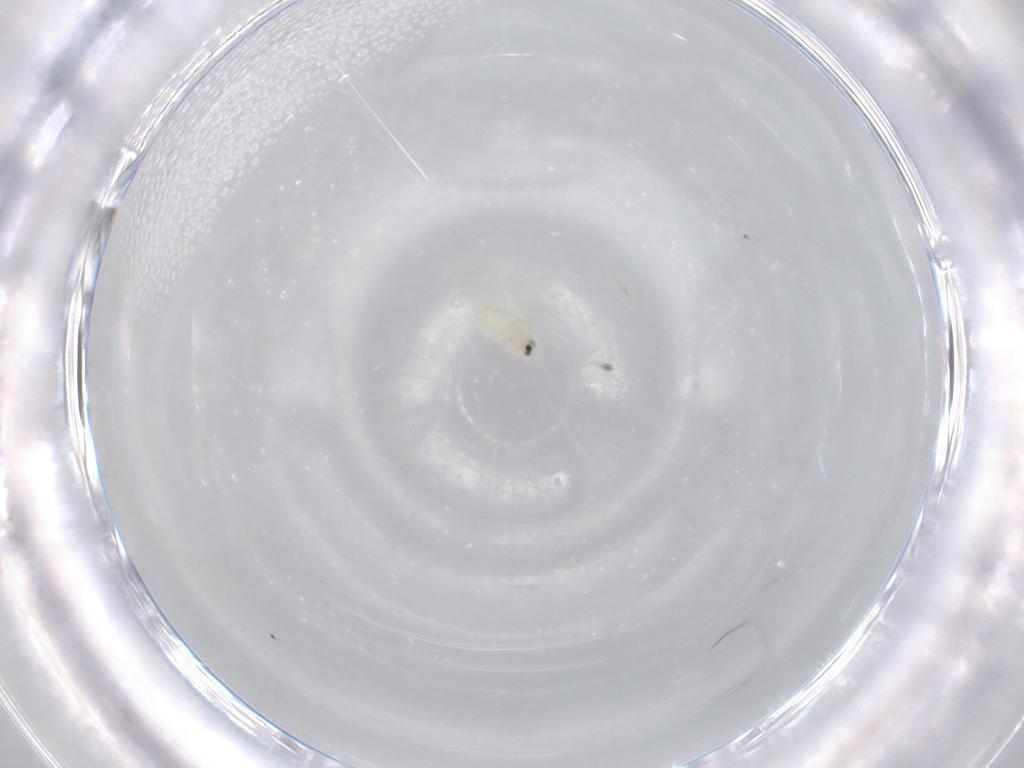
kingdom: Animalia
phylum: Arthropoda
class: Insecta
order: Hemiptera
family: Aleyrodidae
